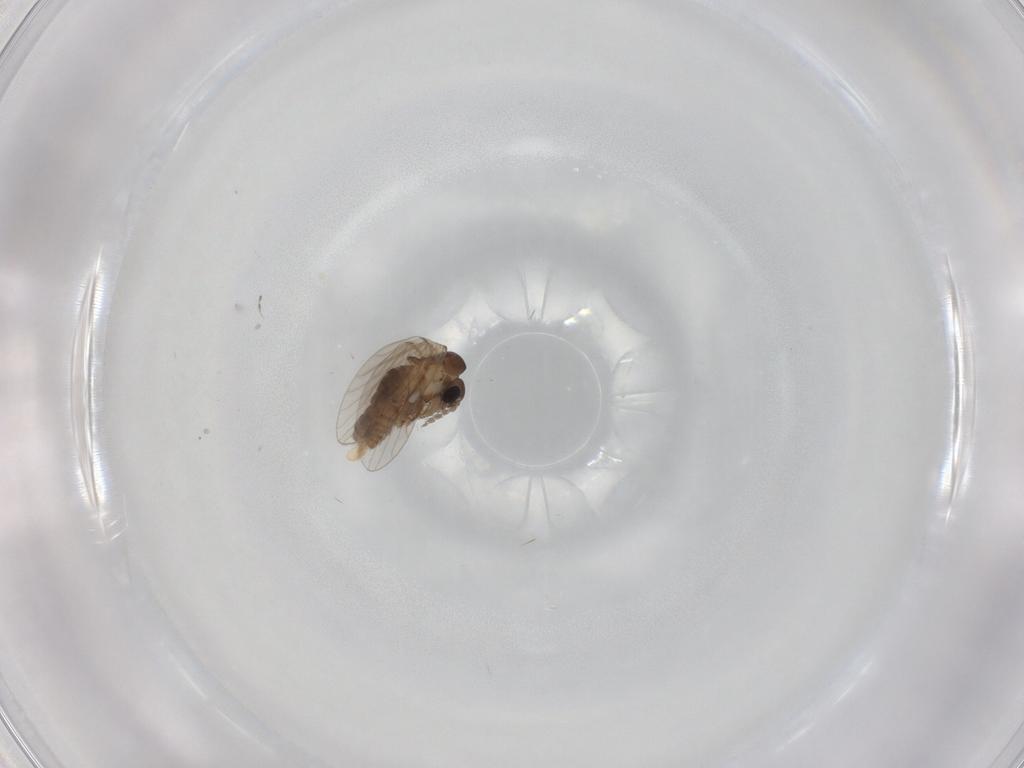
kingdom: Animalia
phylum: Arthropoda
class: Insecta
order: Diptera
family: Psychodidae
